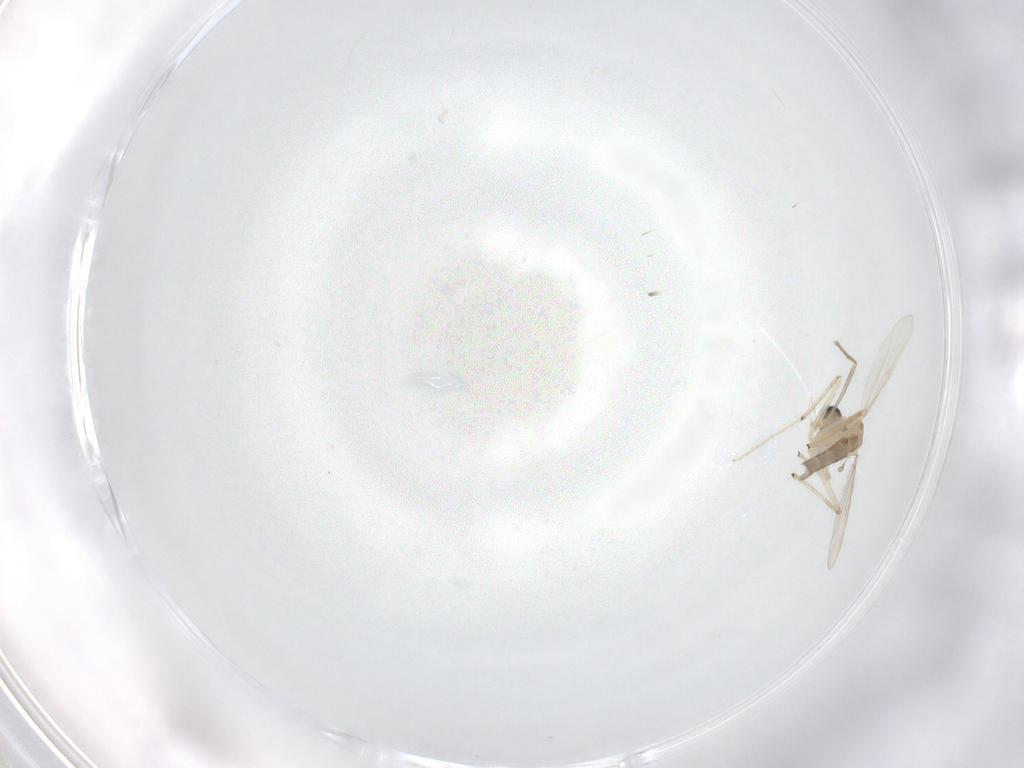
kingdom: Animalia
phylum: Arthropoda
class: Insecta
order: Diptera
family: Chironomidae
